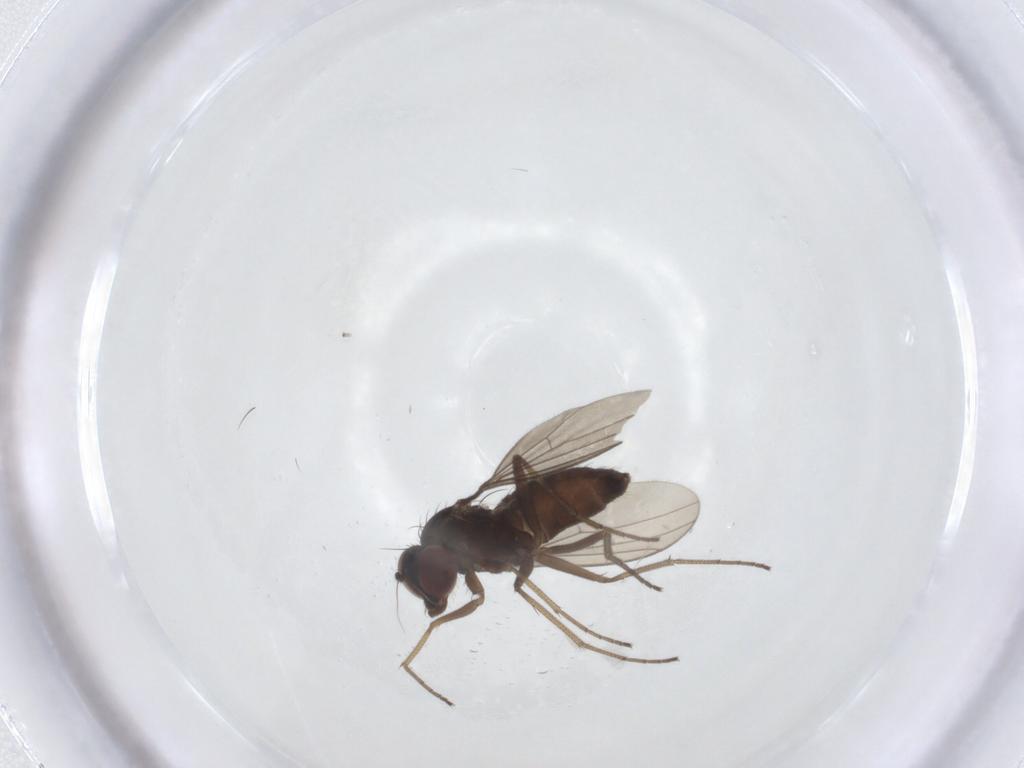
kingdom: Animalia
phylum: Arthropoda
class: Insecta
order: Diptera
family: Dolichopodidae
